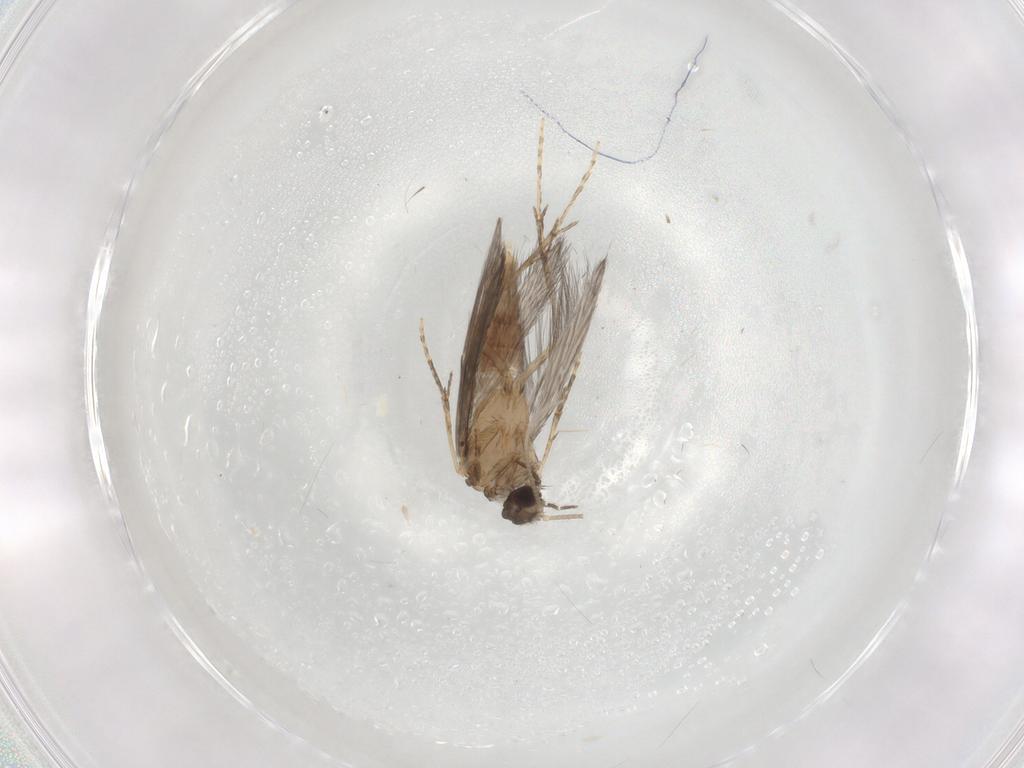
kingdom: Animalia
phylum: Arthropoda
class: Insecta
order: Trichoptera
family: Hydroptilidae
